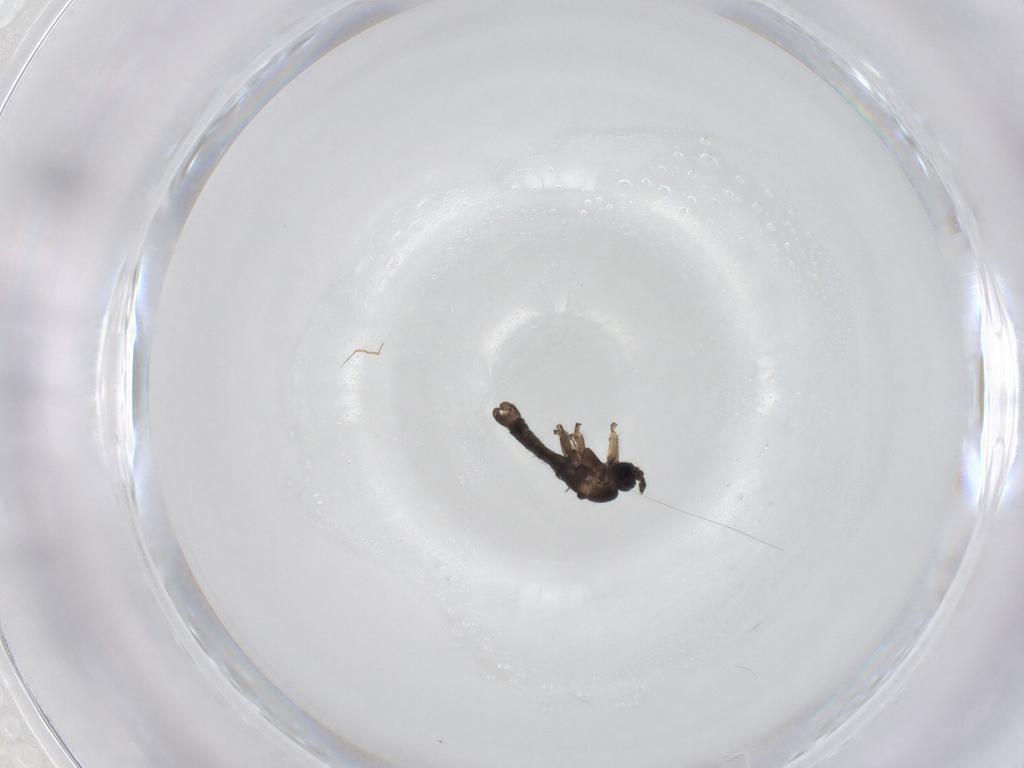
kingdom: Animalia
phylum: Arthropoda
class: Insecta
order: Diptera
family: Sciaridae
